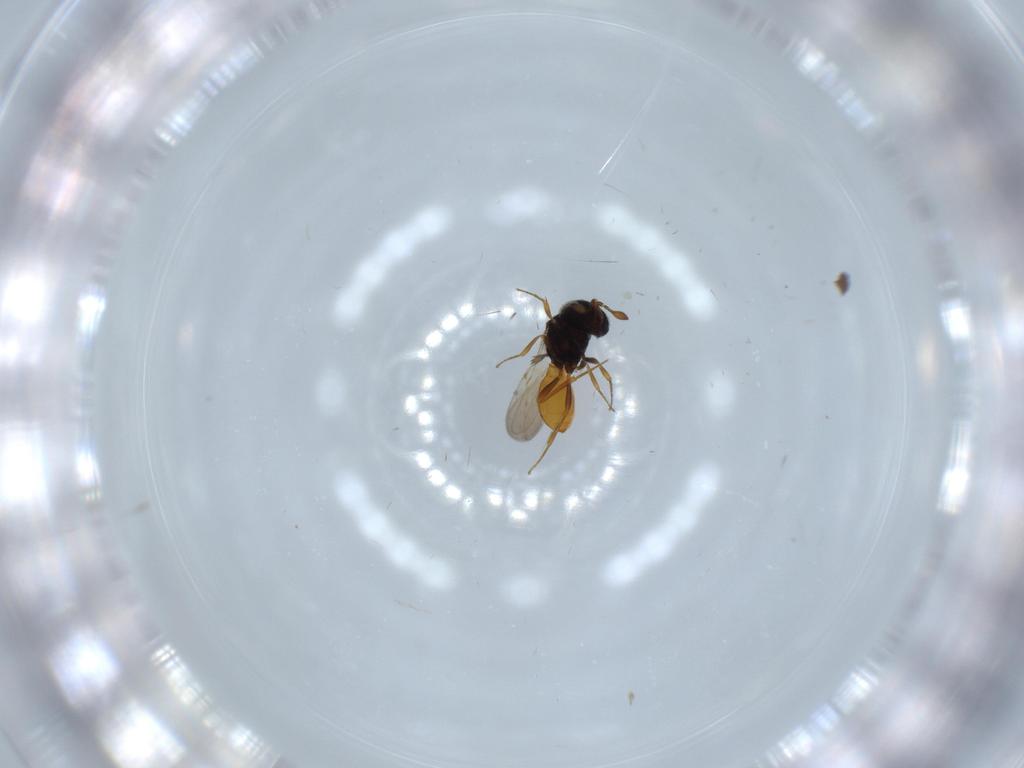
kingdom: Animalia
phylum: Arthropoda
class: Insecta
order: Hymenoptera
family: Scelionidae
